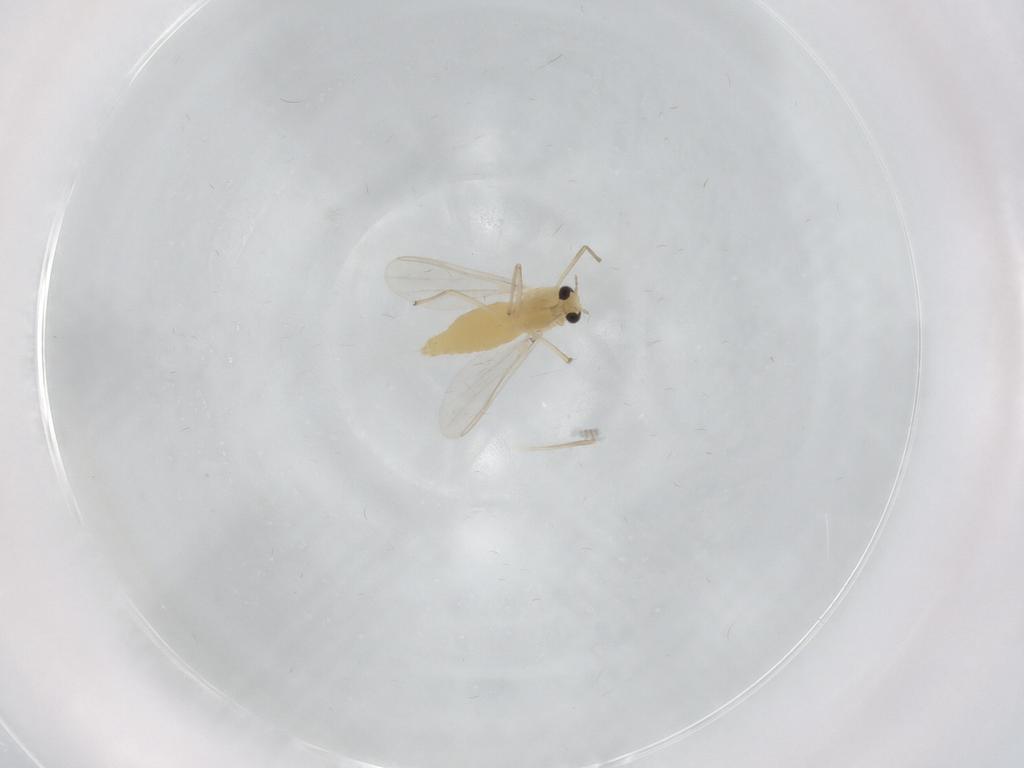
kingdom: Animalia
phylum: Arthropoda
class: Insecta
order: Diptera
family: Chironomidae
